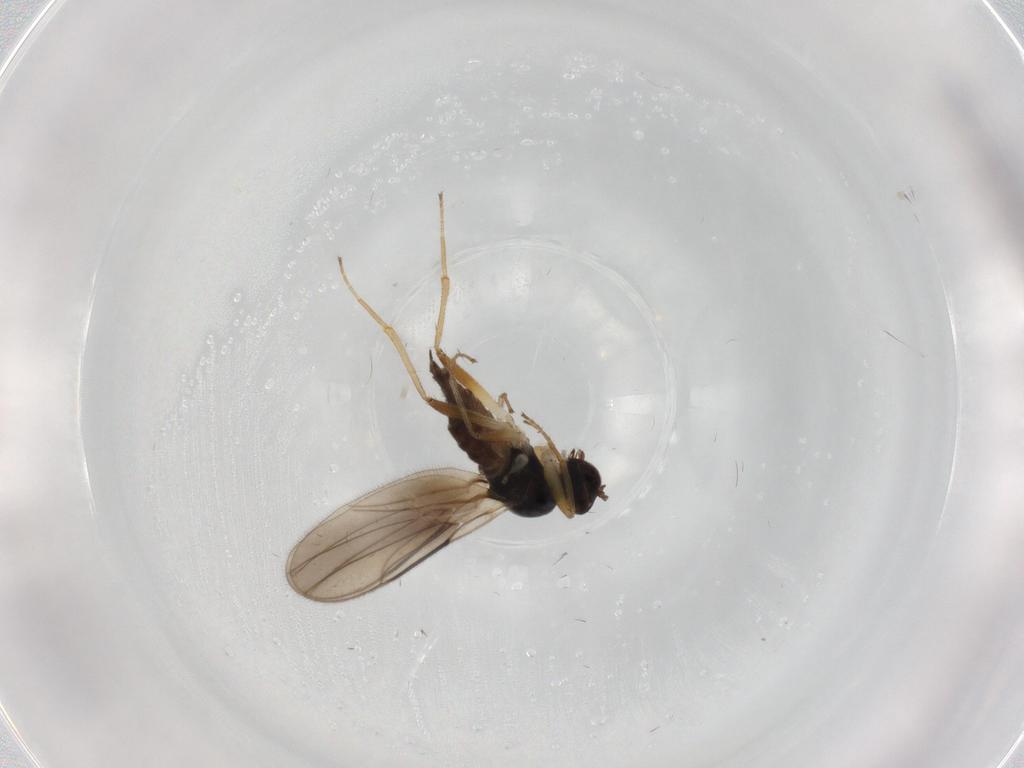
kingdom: Animalia
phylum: Arthropoda
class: Insecta
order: Diptera
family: Hybotidae
